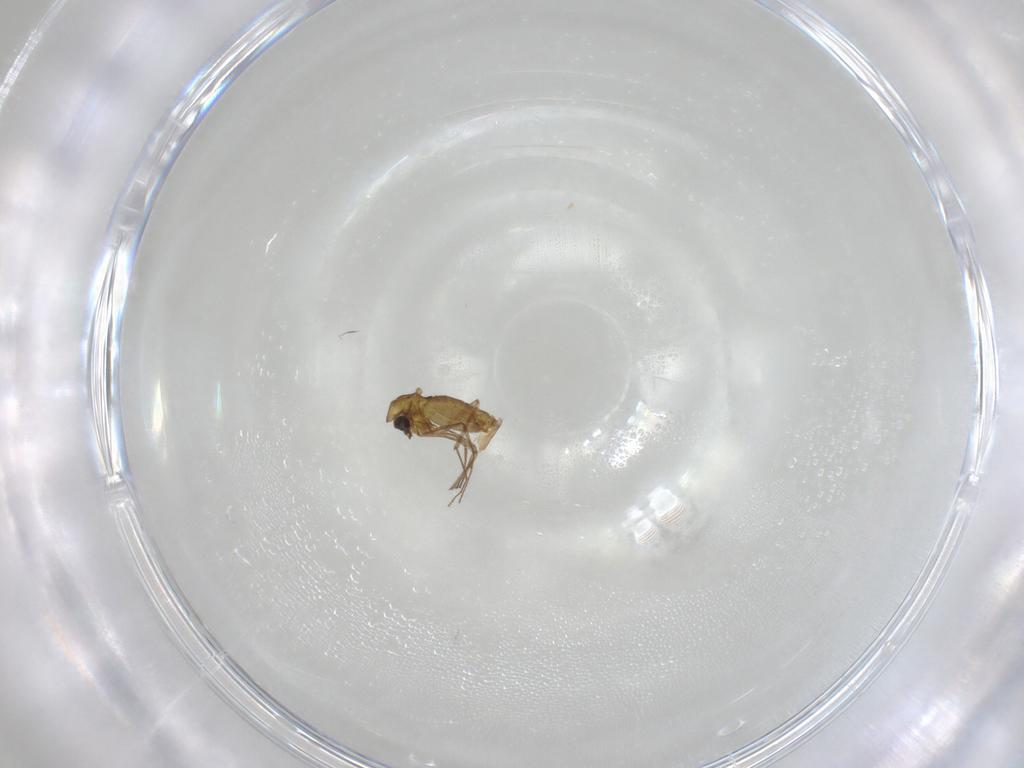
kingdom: Animalia
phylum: Arthropoda
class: Insecta
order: Diptera
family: Chironomidae
